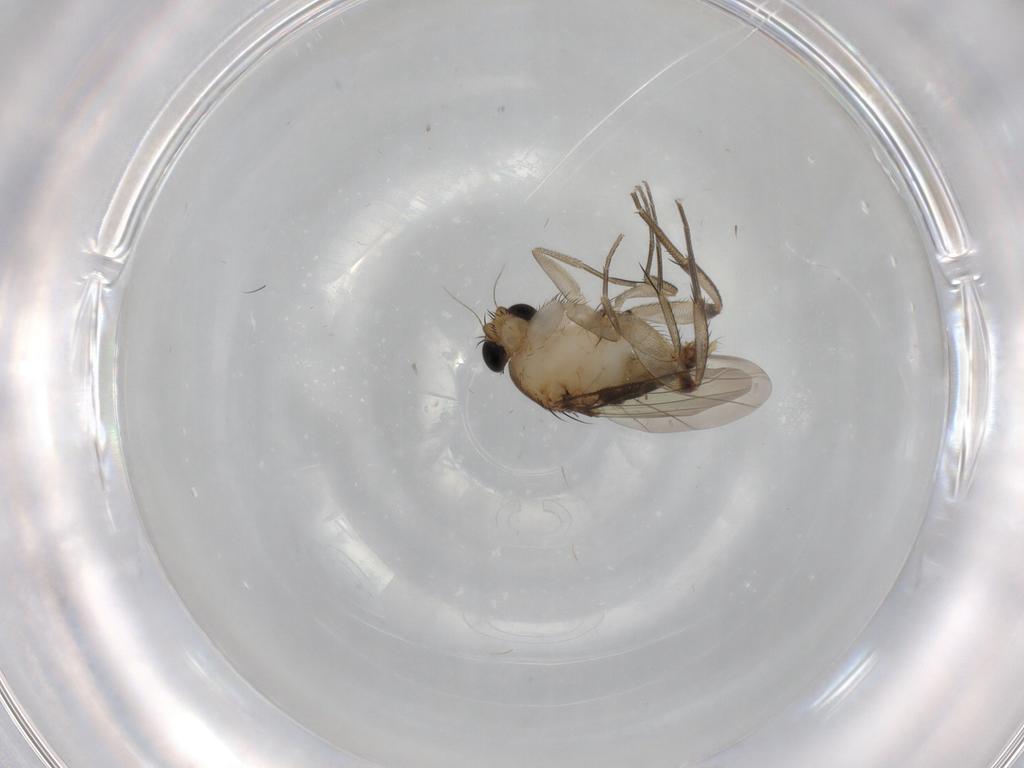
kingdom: Animalia
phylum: Arthropoda
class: Insecta
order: Diptera
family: Phoridae
